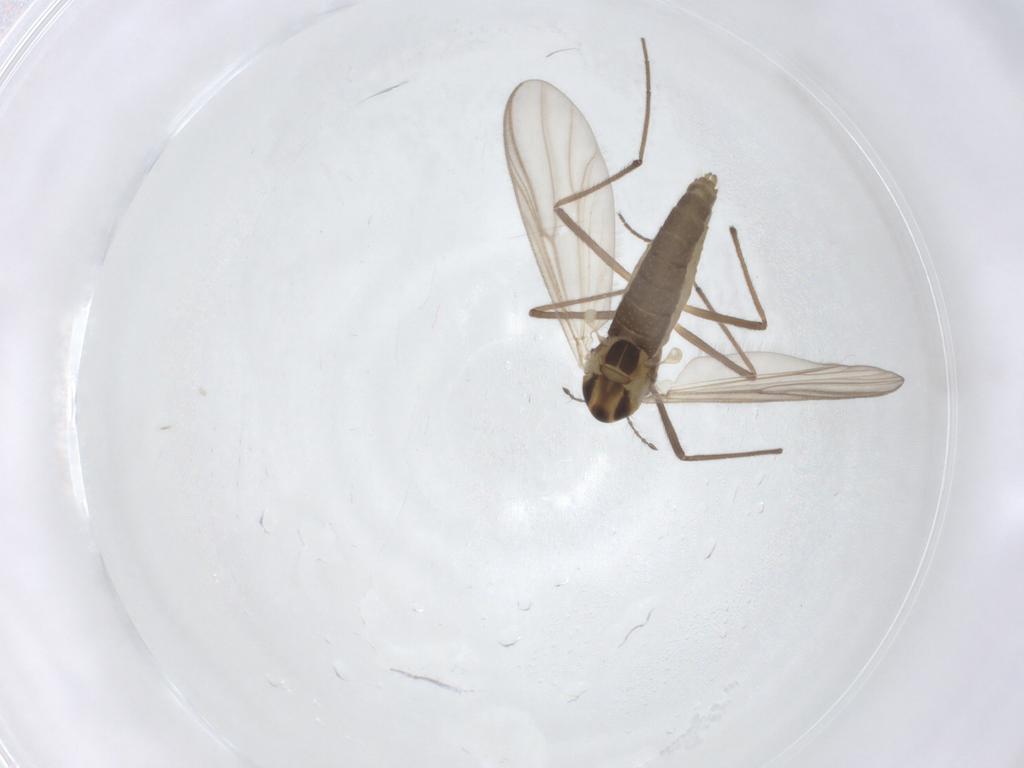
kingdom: Animalia
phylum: Arthropoda
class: Insecta
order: Diptera
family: Chironomidae
